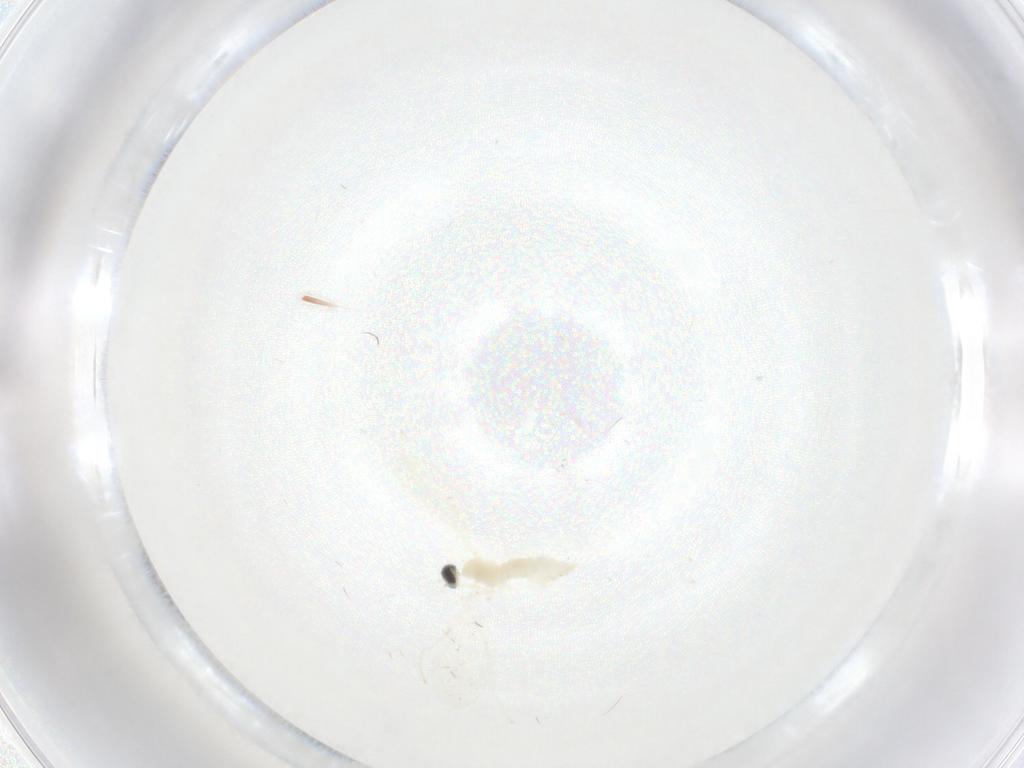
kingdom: Animalia
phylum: Arthropoda
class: Insecta
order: Diptera
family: Cecidomyiidae
